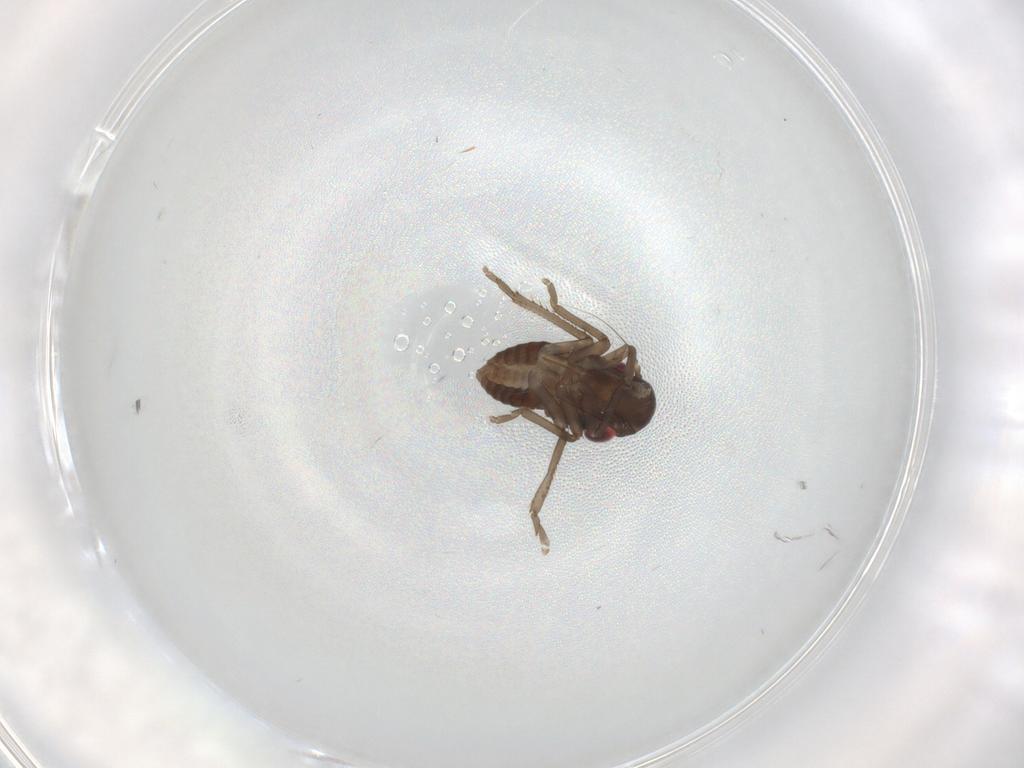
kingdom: Animalia
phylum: Arthropoda
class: Insecta
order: Hemiptera
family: Cicadellidae
